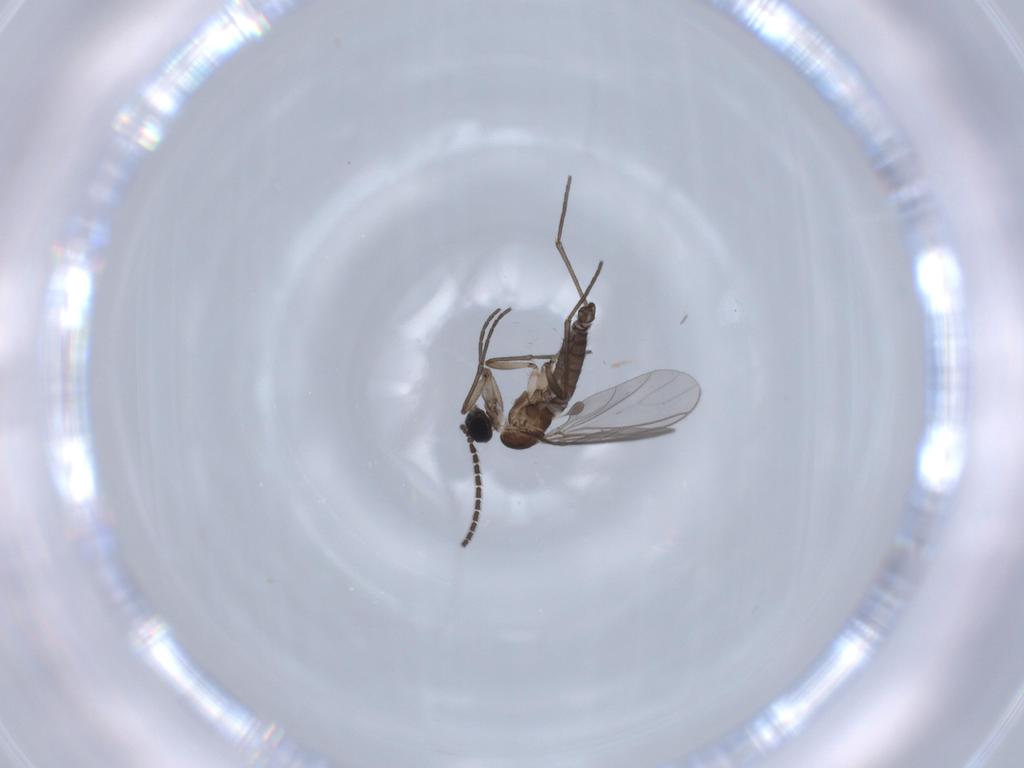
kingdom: Animalia
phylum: Arthropoda
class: Insecta
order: Diptera
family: Sciaridae
